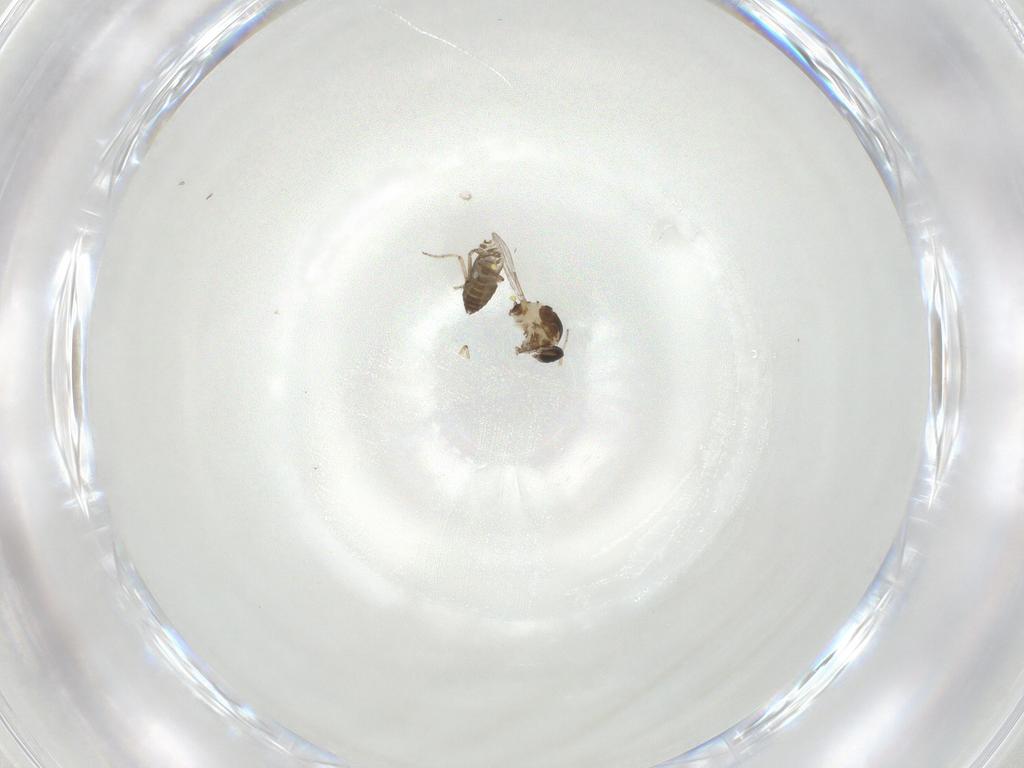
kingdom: Animalia
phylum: Arthropoda
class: Insecta
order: Diptera
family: Ceratopogonidae
